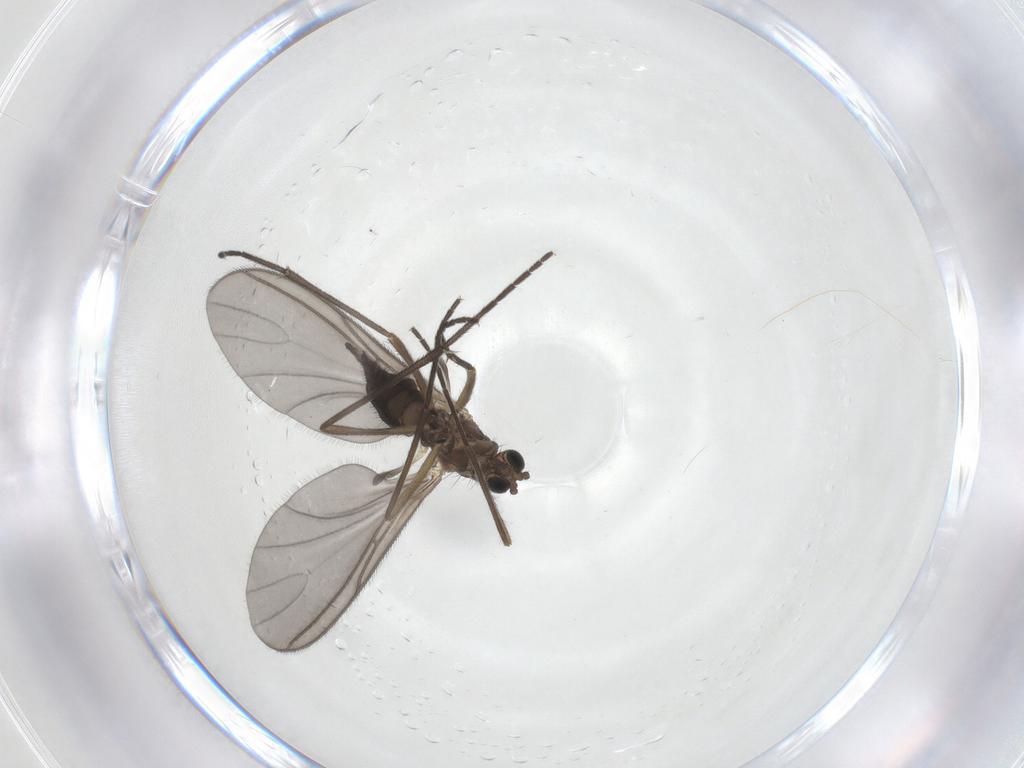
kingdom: Animalia
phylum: Arthropoda
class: Insecta
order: Diptera
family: Sciaridae
